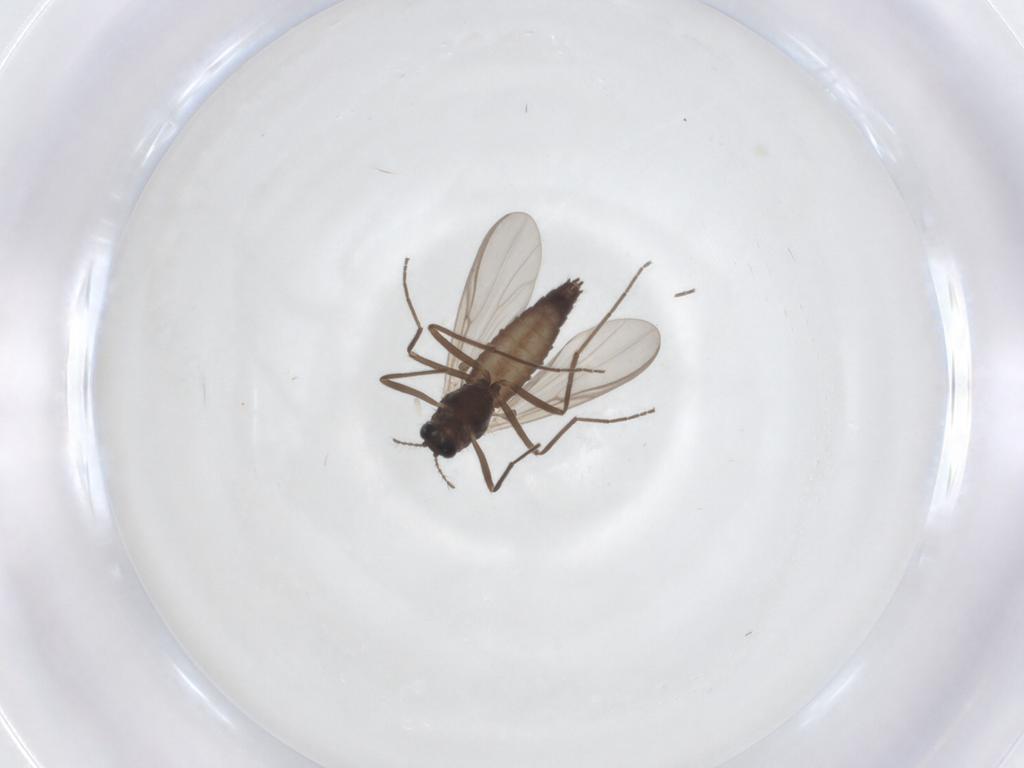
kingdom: Animalia
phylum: Arthropoda
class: Insecta
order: Diptera
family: Chironomidae
